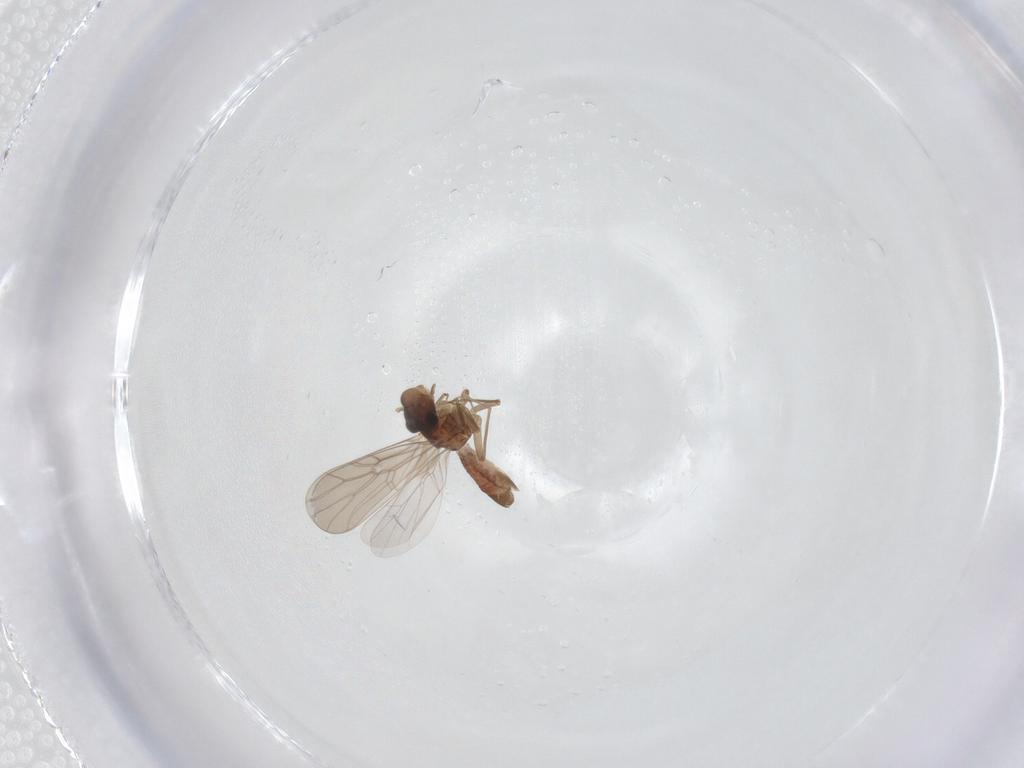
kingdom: Animalia
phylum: Arthropoda
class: Insecta
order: Psocodea
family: Lepidopsocidae
